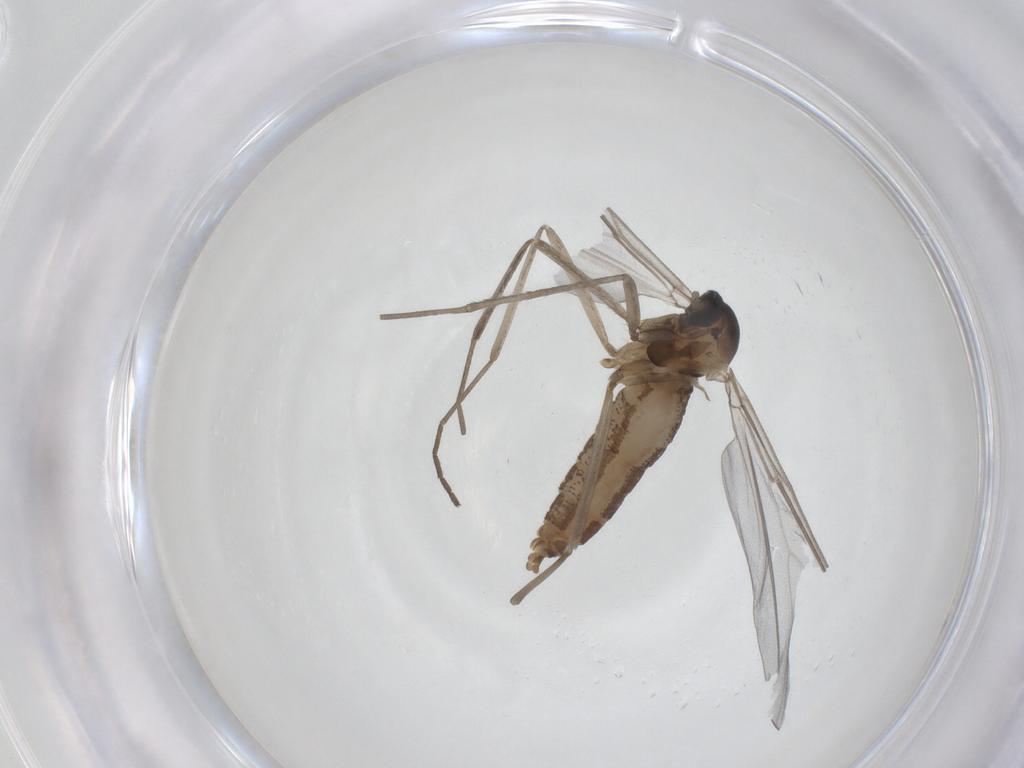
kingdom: Animalia
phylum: Arthropoda
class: Insecta
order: Diptera
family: Cecidomyiidae
